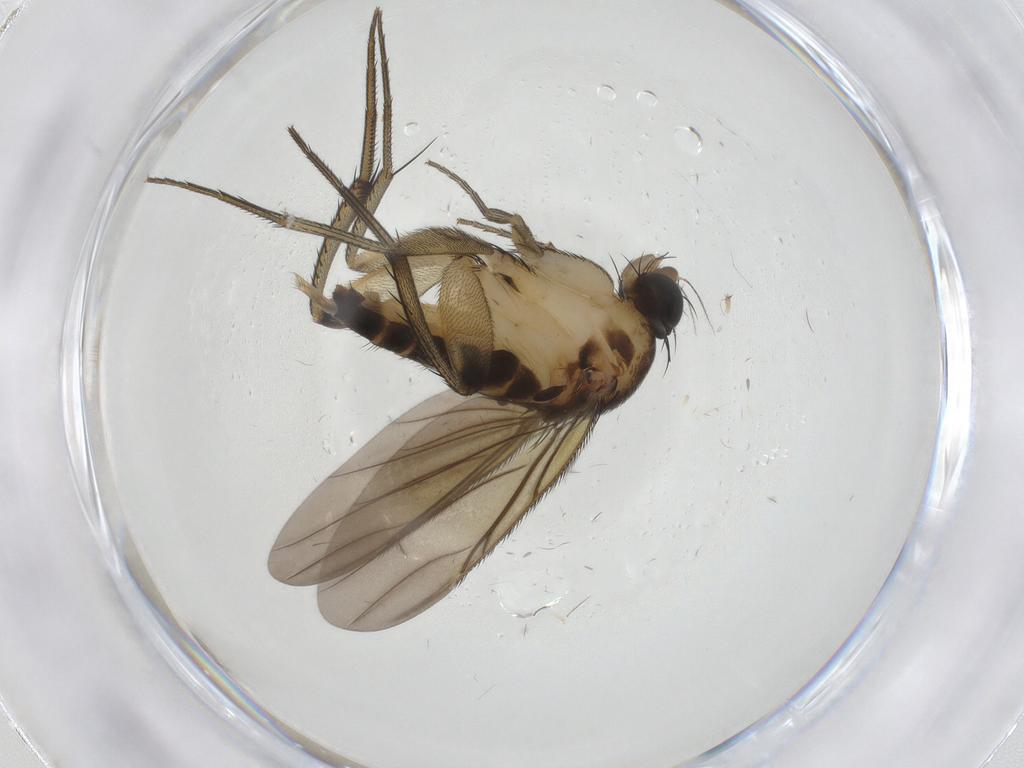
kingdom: Animalia
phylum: Arthropoda
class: Insecta
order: Diptera
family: Chironomidae
